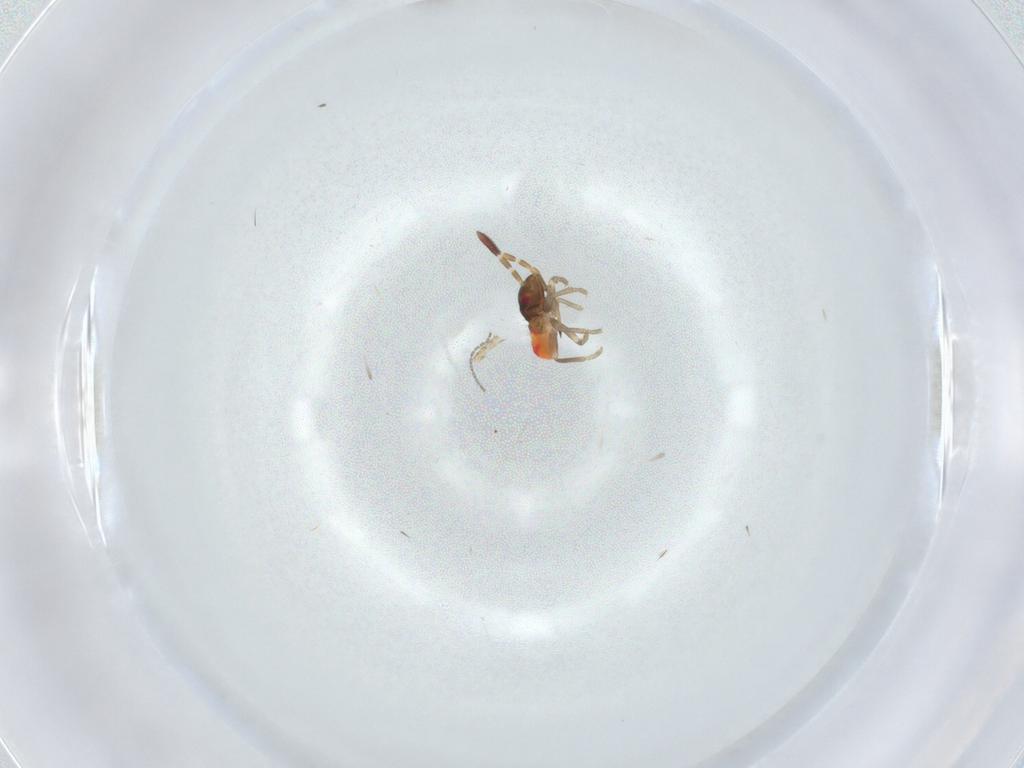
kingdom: Animalia
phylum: Arthropoda
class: Insecta
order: Hemiptera
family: Rhyparochromidae
